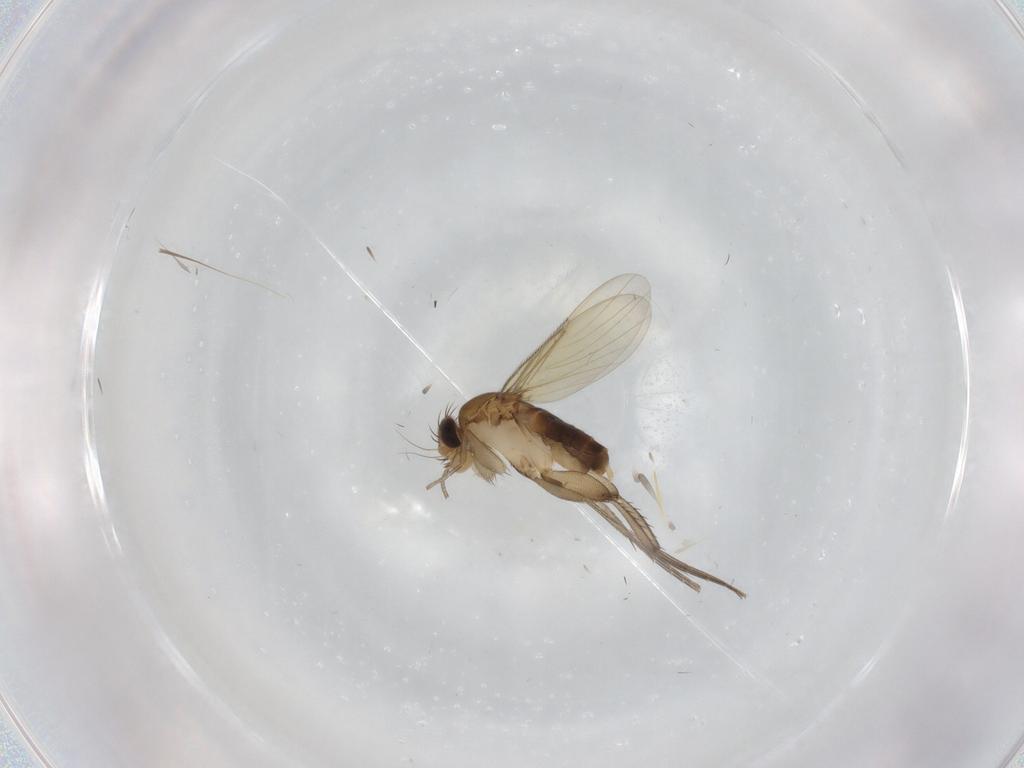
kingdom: Animalia
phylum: Arthropoda
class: Insecta
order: Diptera
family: Phoridae
